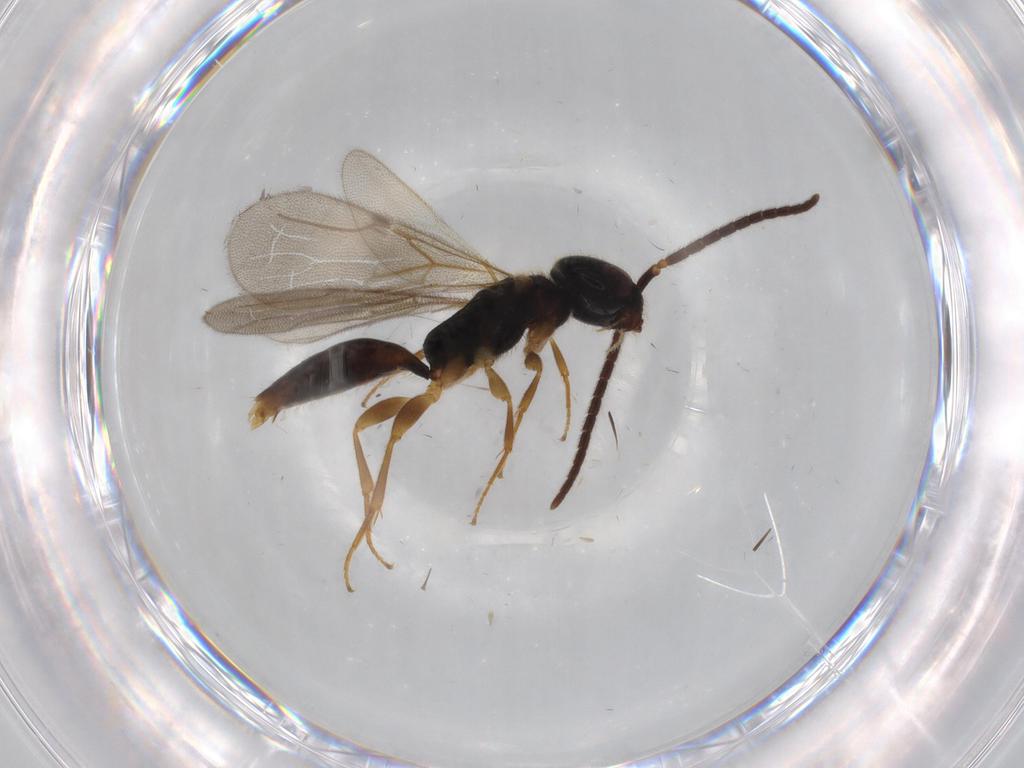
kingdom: Animalia
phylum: Arthropoda
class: Insecta
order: Hymenoptera
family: Bethylidae
